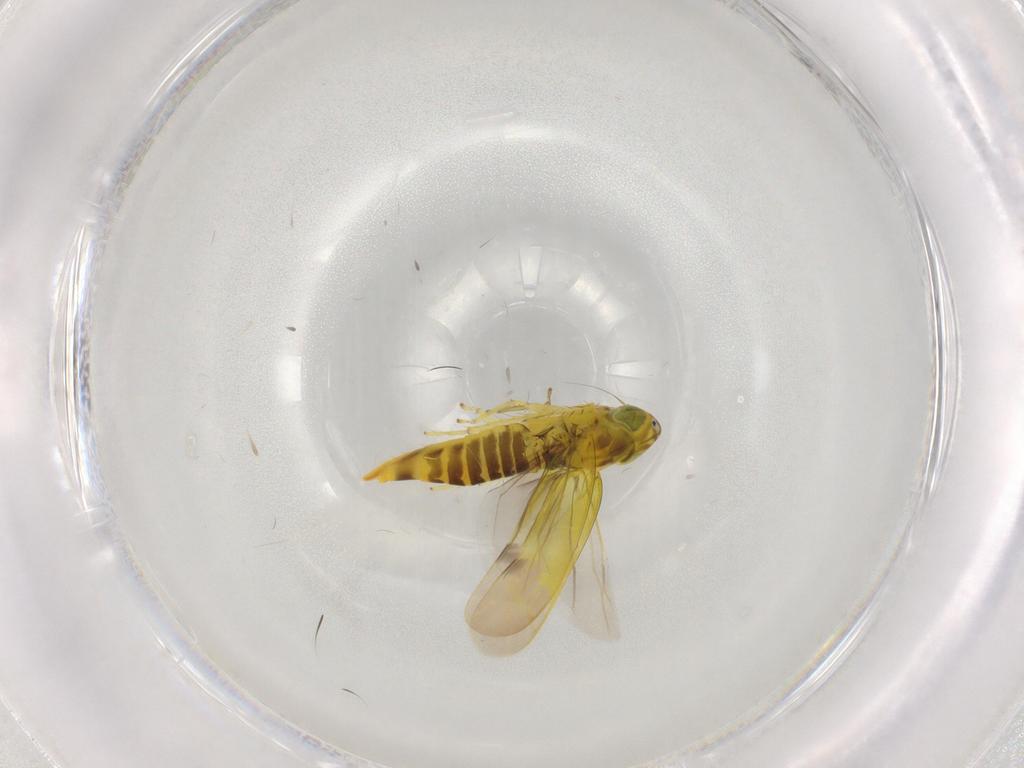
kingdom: Animalia
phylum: Arthropoda
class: Insecta
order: Hemiptera
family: Cicadellidae
